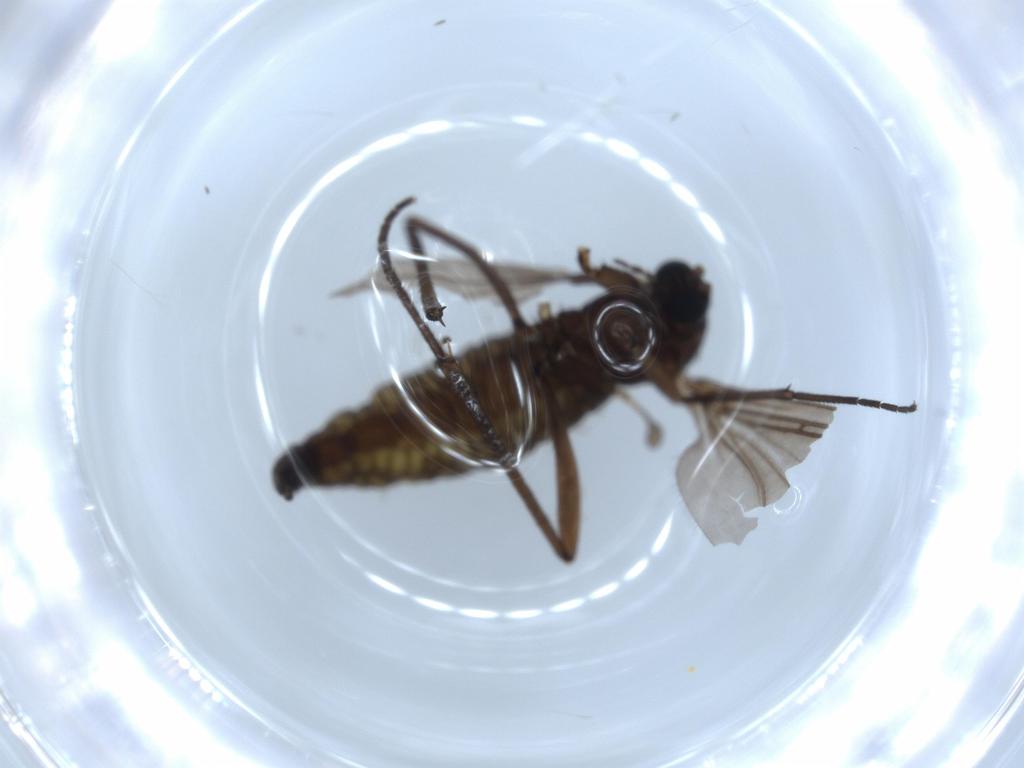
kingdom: Animalia
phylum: Arthropoda
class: Insecta
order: Diptera
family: Sciaridae
